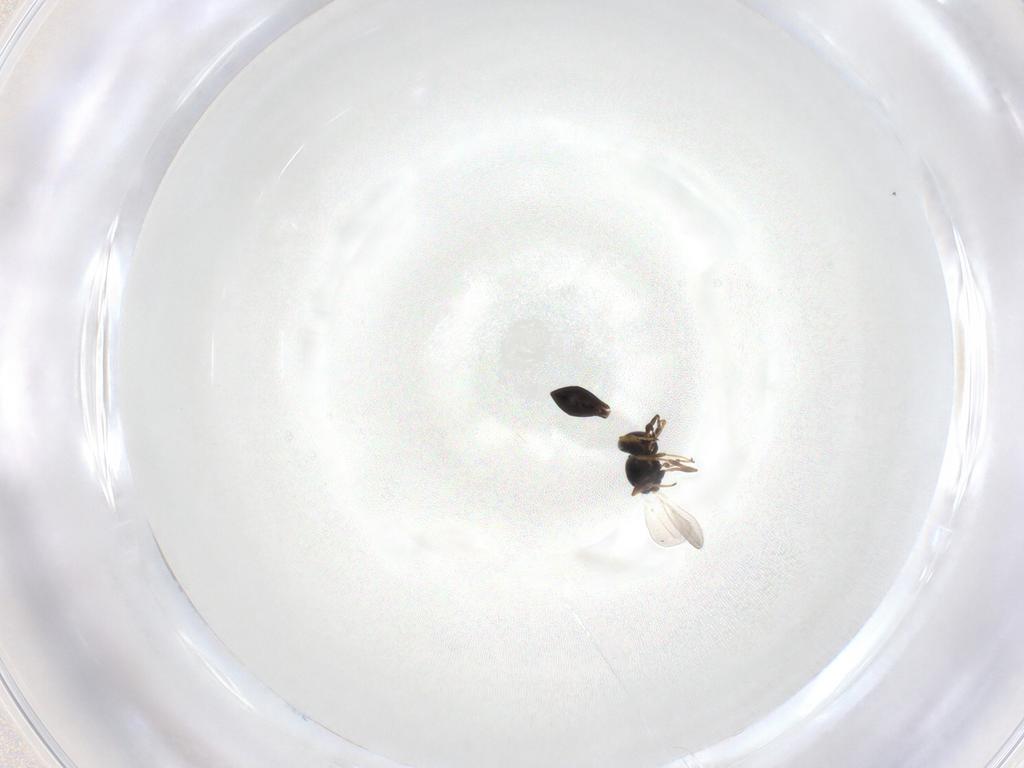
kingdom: Animalia
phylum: Arthropoda
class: Insecta
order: Hymenoptera
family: Platygastridae
